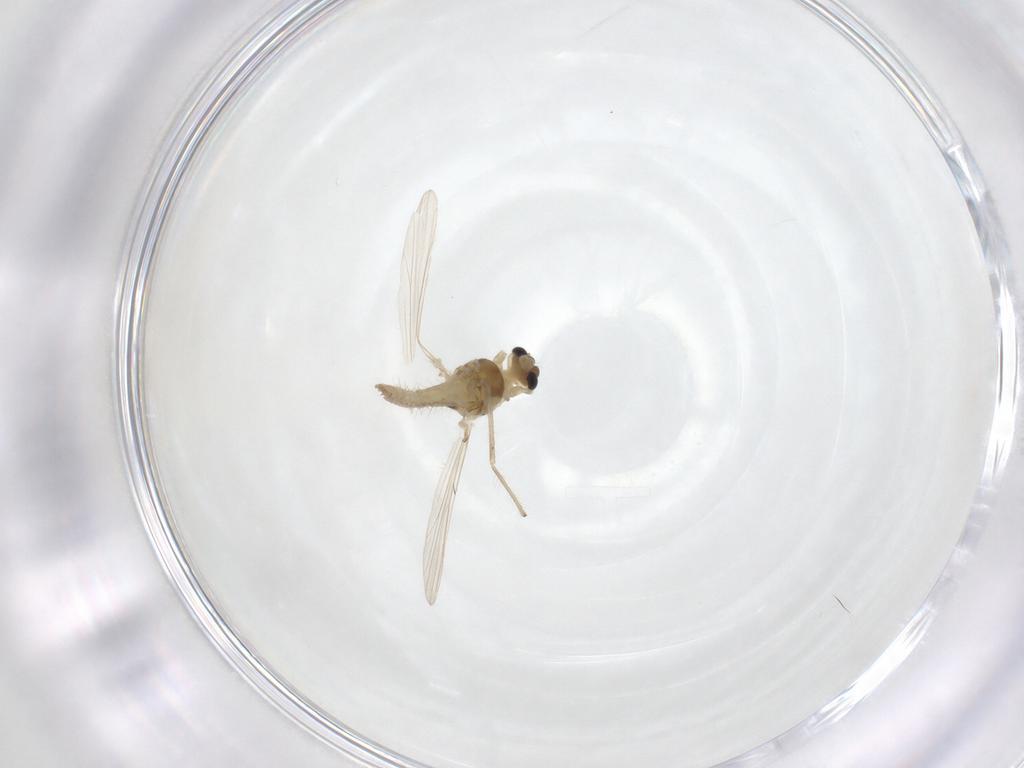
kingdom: Animalia
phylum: Arthropoda
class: Insecta
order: Diptera
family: Chironomidae
